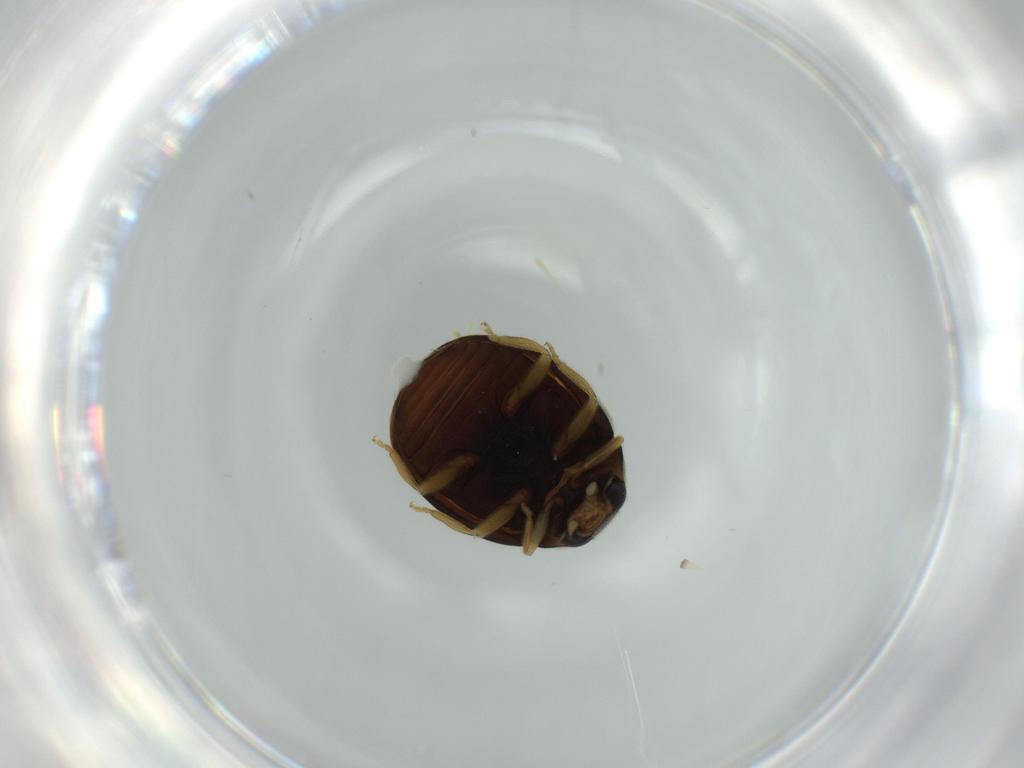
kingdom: Animalia
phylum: Arthropoda
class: Insecta
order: Coleoptera
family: Coccinellidae
